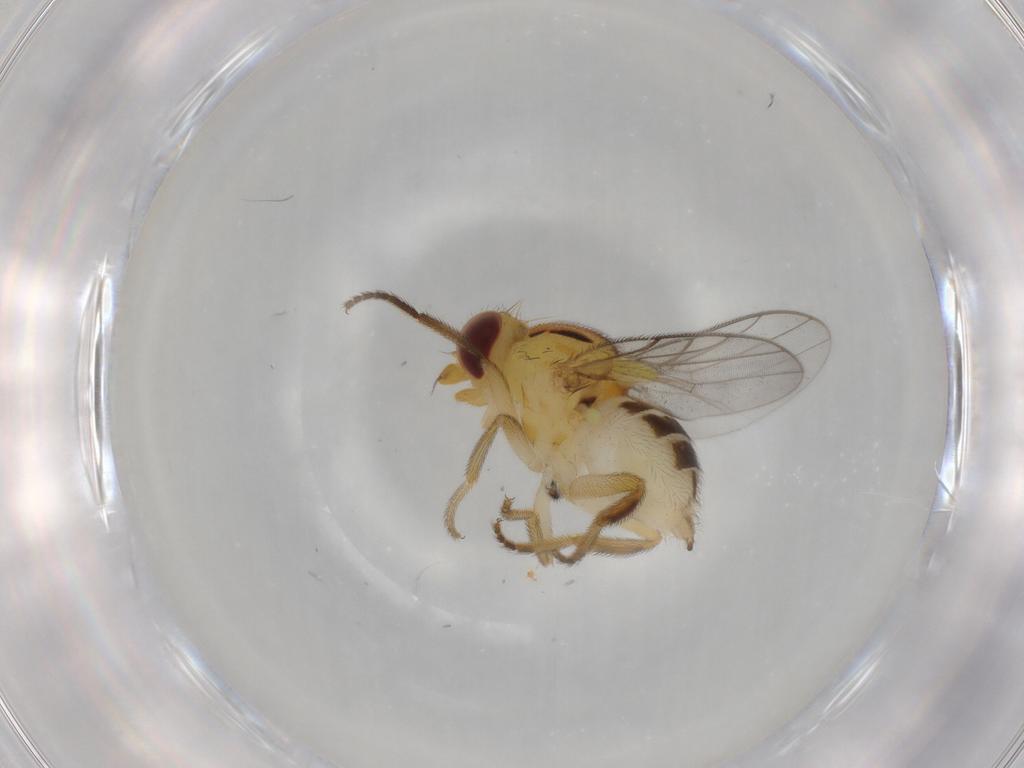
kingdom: Animalia
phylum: Arthropoda
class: Insecta
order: Diptera
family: Chloropidae
